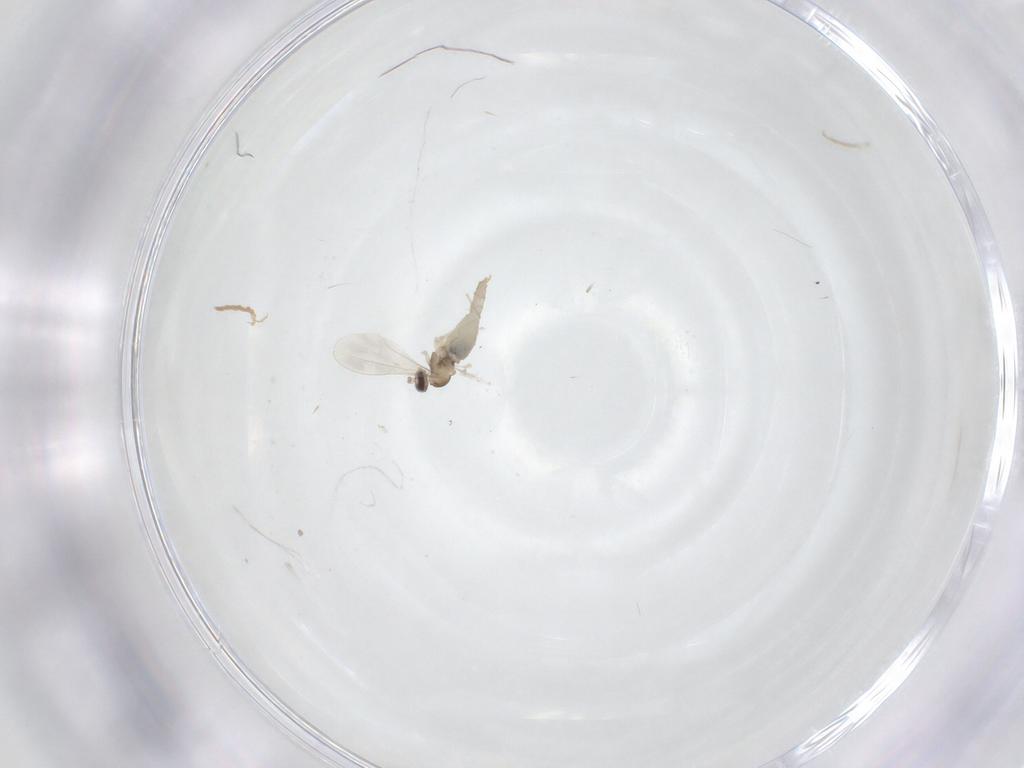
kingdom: Animalia
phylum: Arthropoda
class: Insecta
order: Diptera
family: Cecidomyiidae
